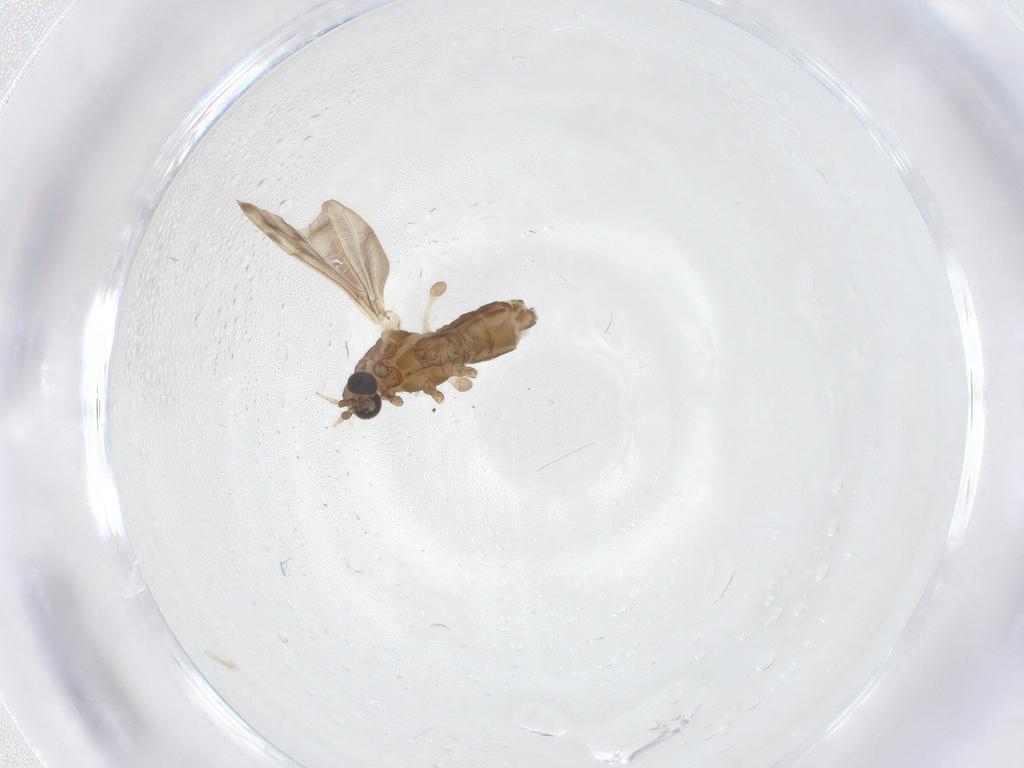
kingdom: Animalia
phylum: Arthropoda
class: Insecta
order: Diptera
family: Limoniidae
